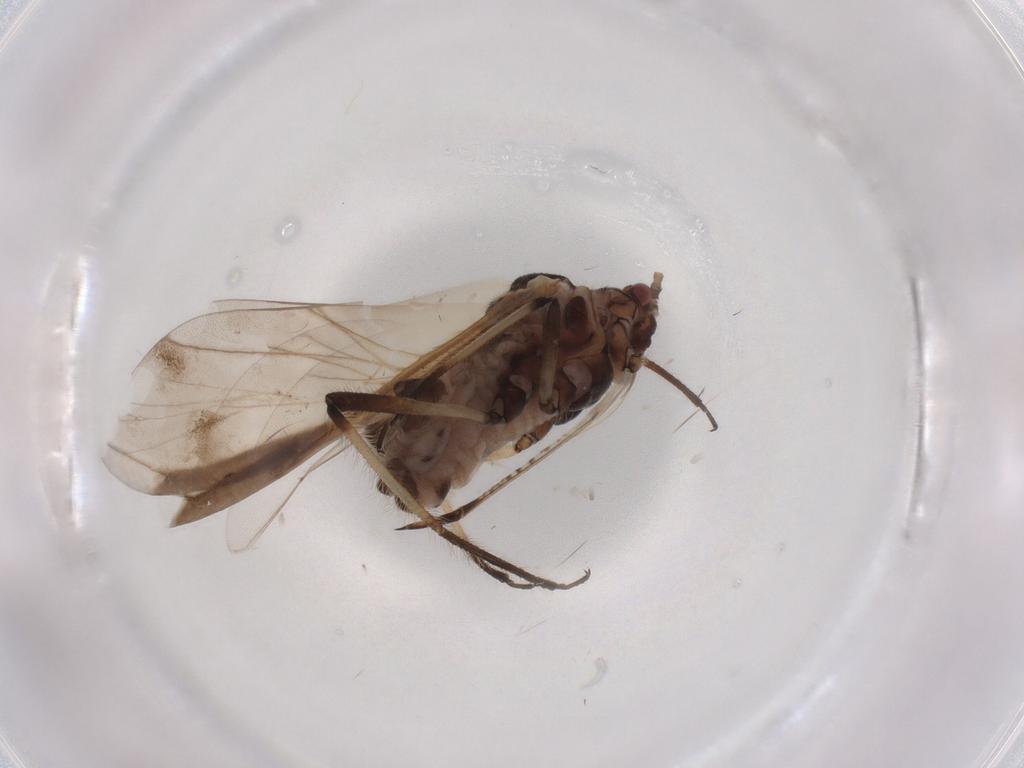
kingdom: Animalia
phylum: Arthropoda
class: Insecta
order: Hemiptera
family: Aphididae
